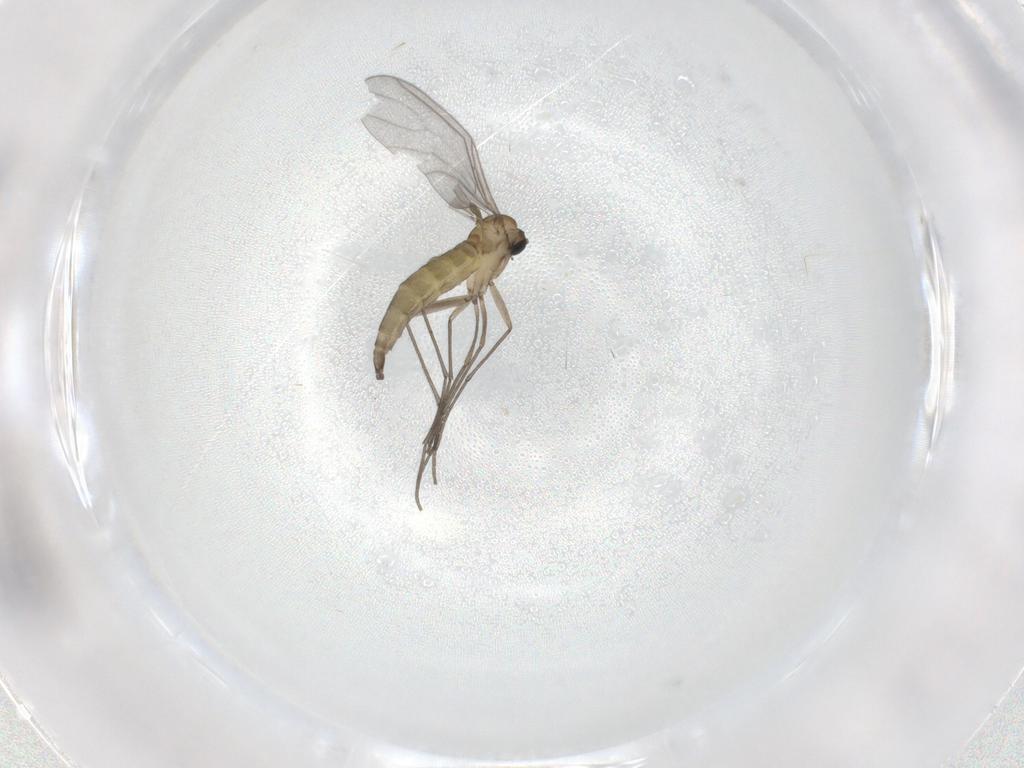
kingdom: Animalia
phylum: Arthropoda
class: Insecta
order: Diptera
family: Sciaridae
